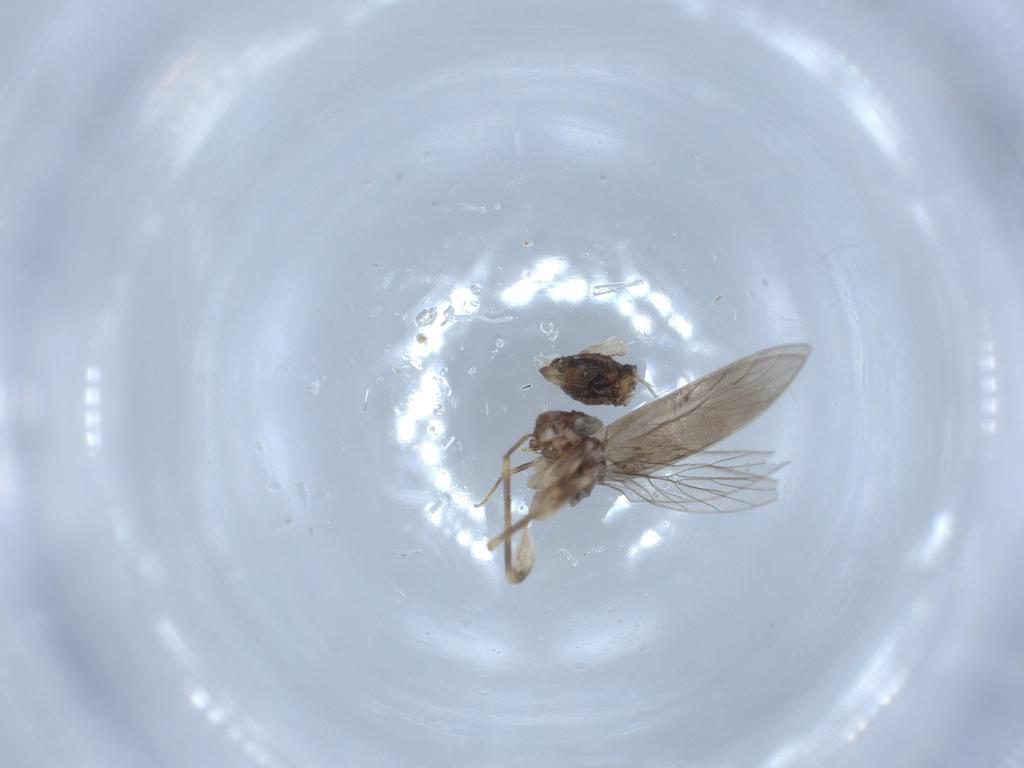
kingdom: Animalia
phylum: Arthropoda
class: Insecta
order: Psocodea
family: Lepidopsocidae
